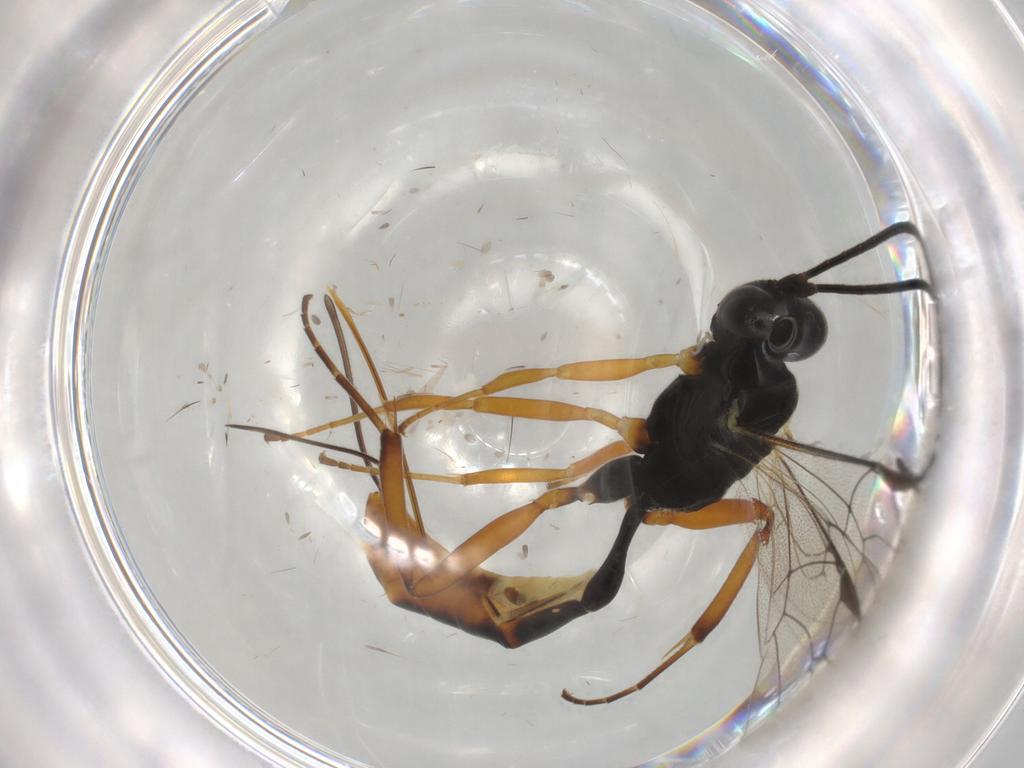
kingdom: Animalia
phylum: Arthropoda
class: Insecta
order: Hymenoptera
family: Ichneumonidae
